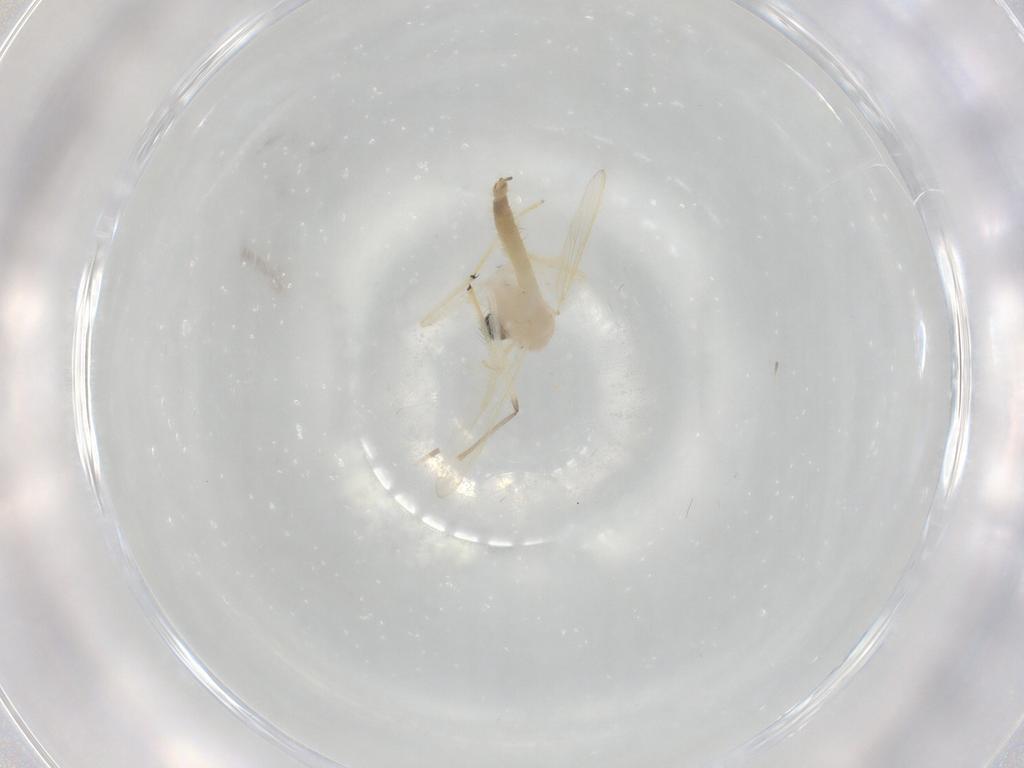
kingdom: Animalia
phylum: Arthropoda
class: Insecta
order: Diptera
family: Chironomidae
